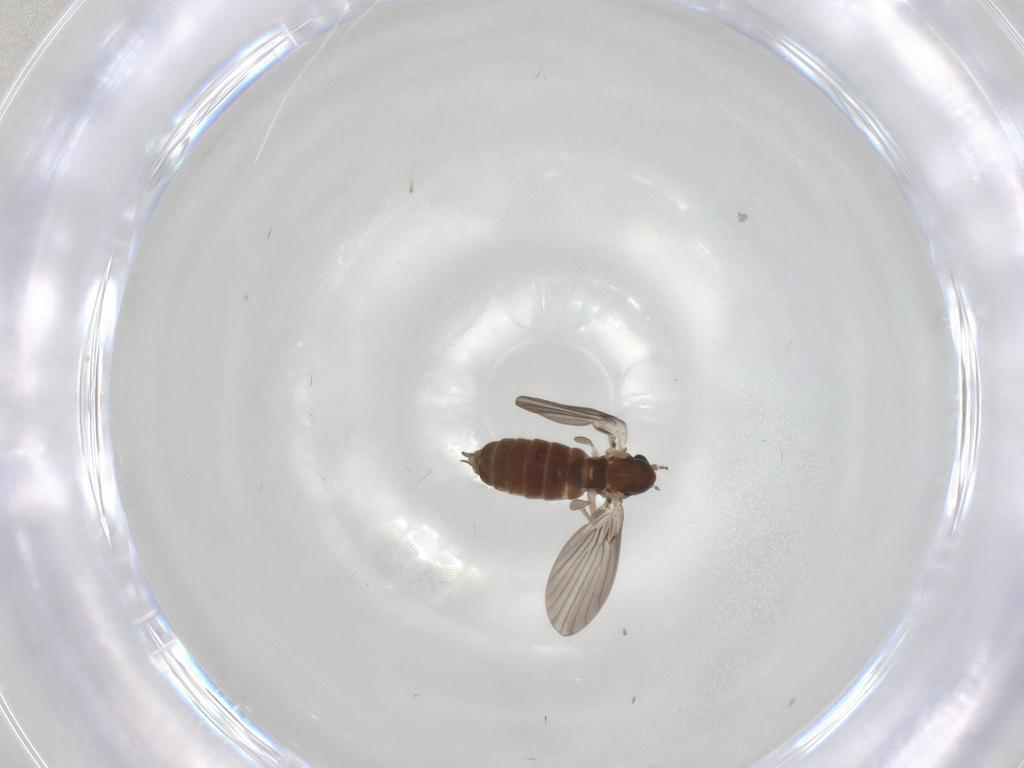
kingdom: Animalia
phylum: Arthropoda
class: Insecta
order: Diptera
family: Psychodidae
